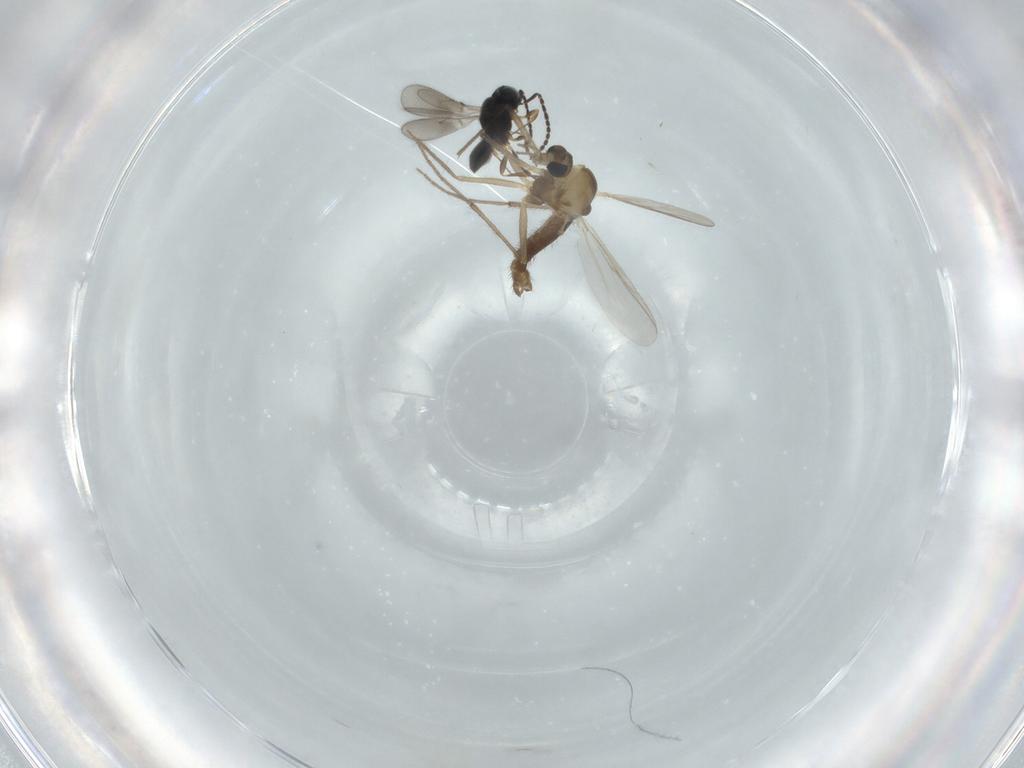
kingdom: Animalia
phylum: Arthropoda
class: Insecta
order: Diptera
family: Chironomidae
